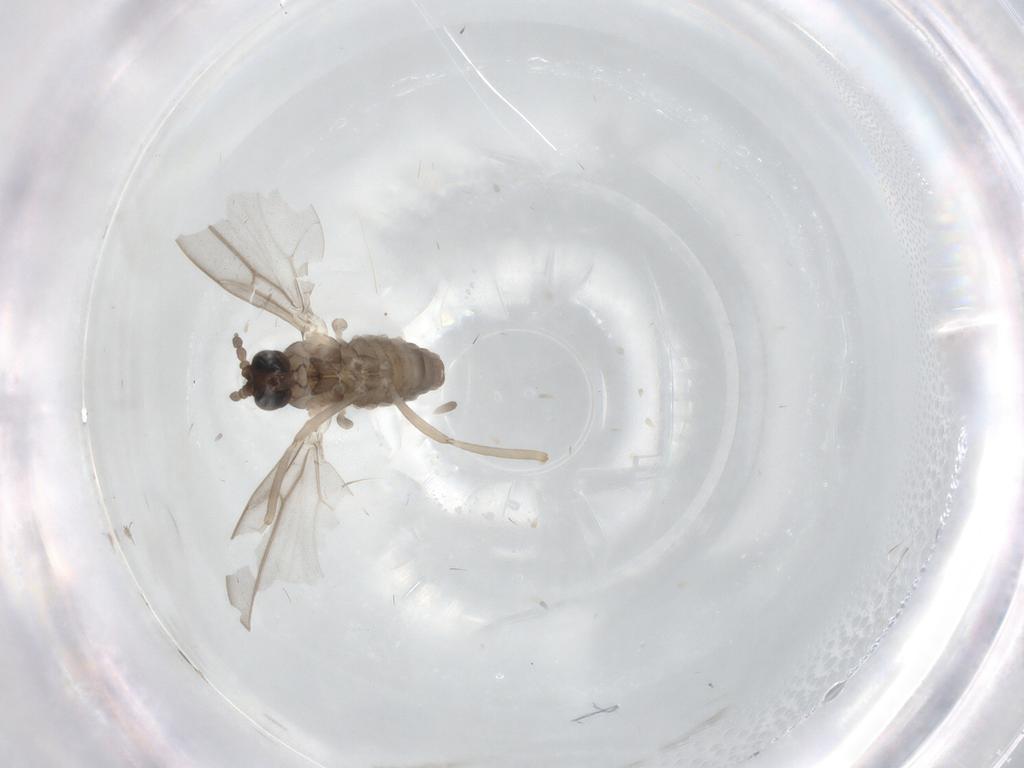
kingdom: Animalia
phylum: Arthropoda
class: Insecta
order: Diptera
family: Cecidomyiidae
